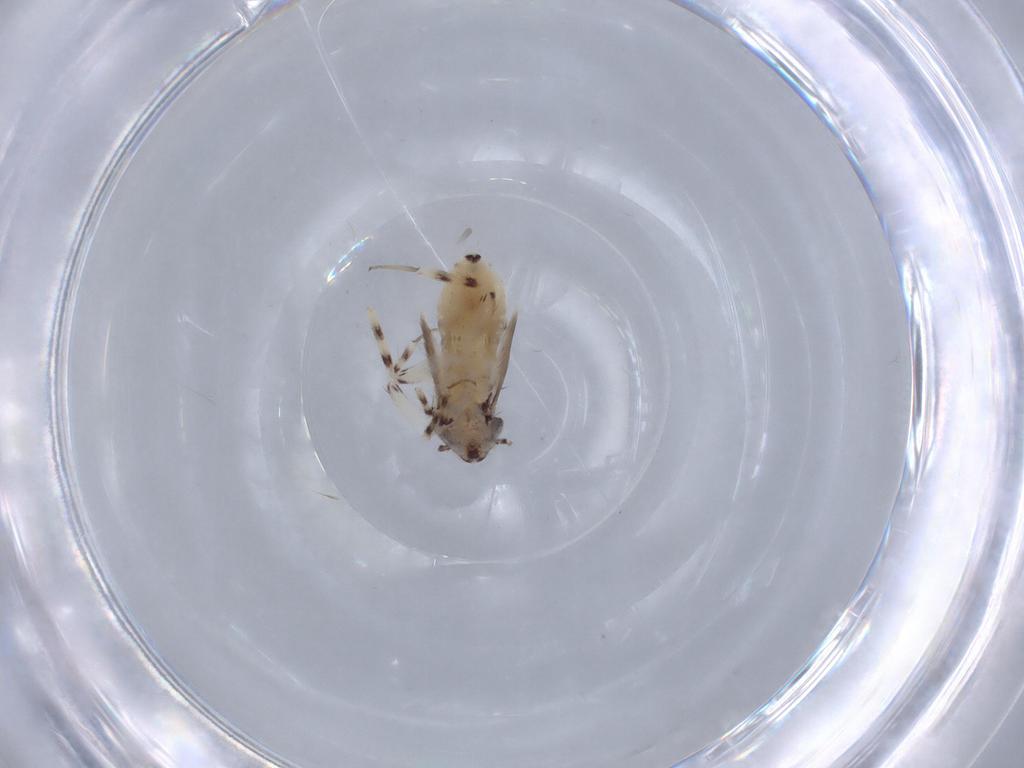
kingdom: Animalia
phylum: Arthropoda
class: Insecta
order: Psocodea
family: Lepidopsocidae
